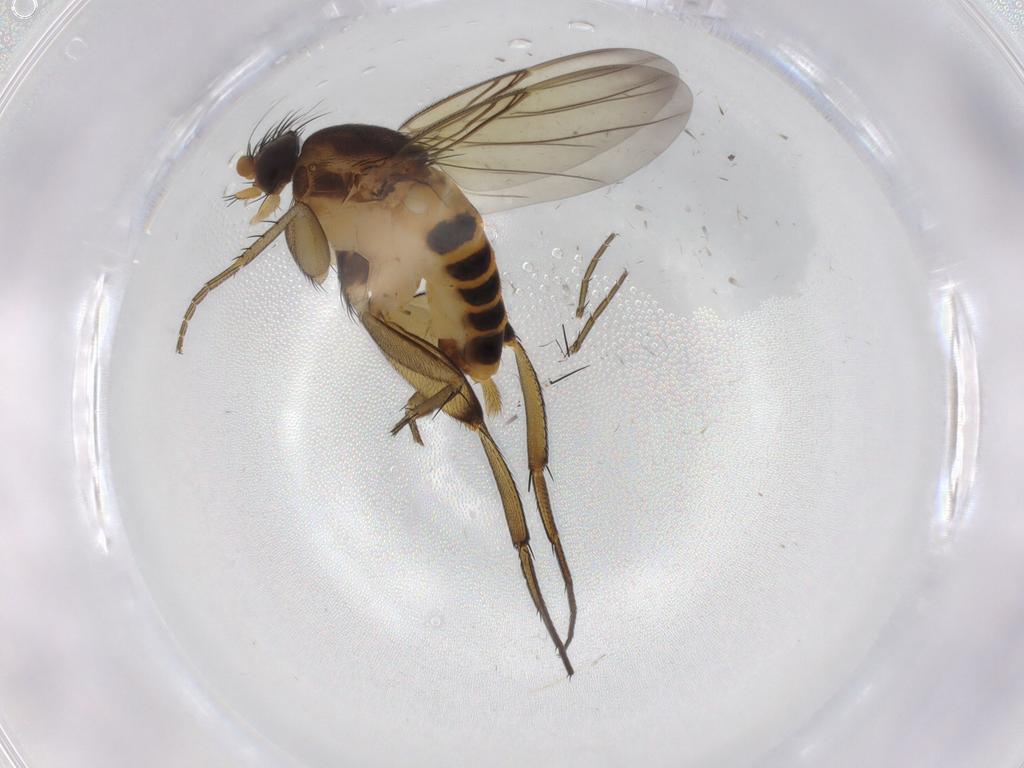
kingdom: Animalia
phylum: Arthropoda
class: Insecta
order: Diptera
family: Phoridae
